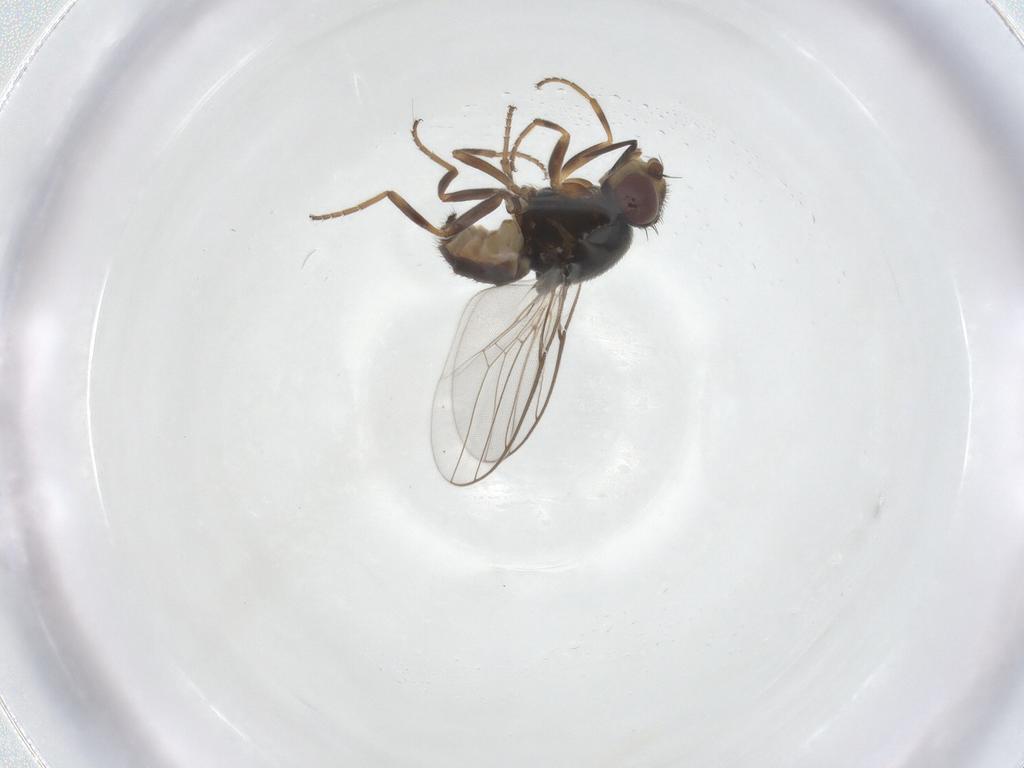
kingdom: Animalia
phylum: Arthropoda
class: Insecta
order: Diptera
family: Chloropidae
